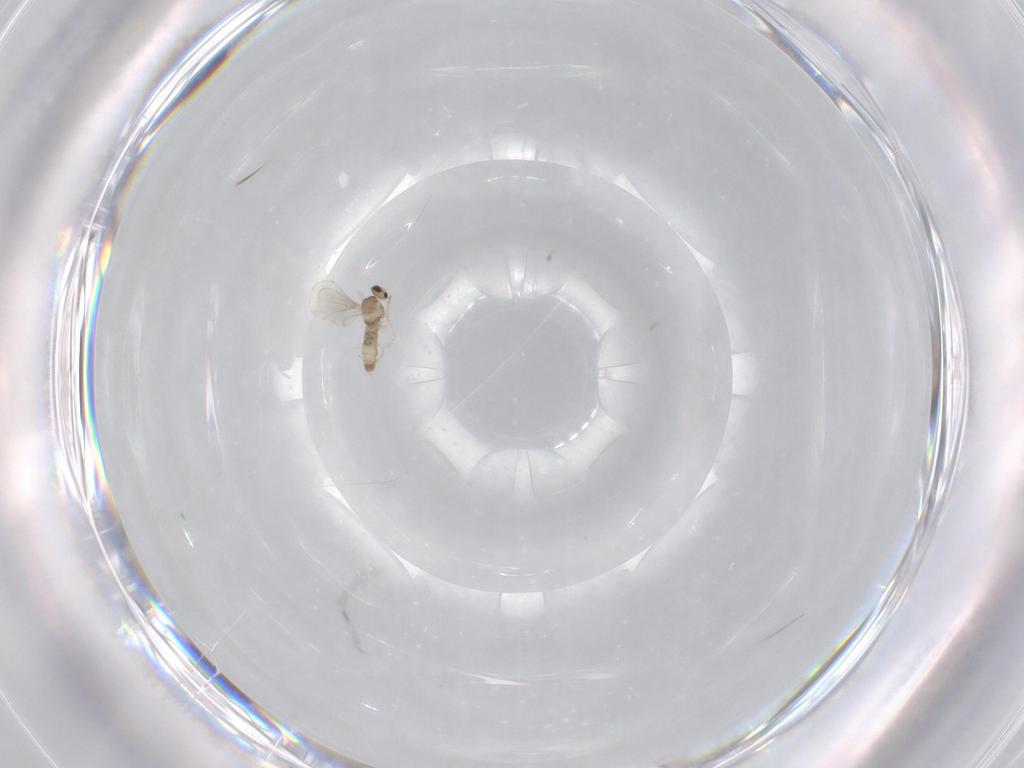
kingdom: Animalia
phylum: Arthropoda
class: Insecta
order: Diptera
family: Cecidomyiidae
